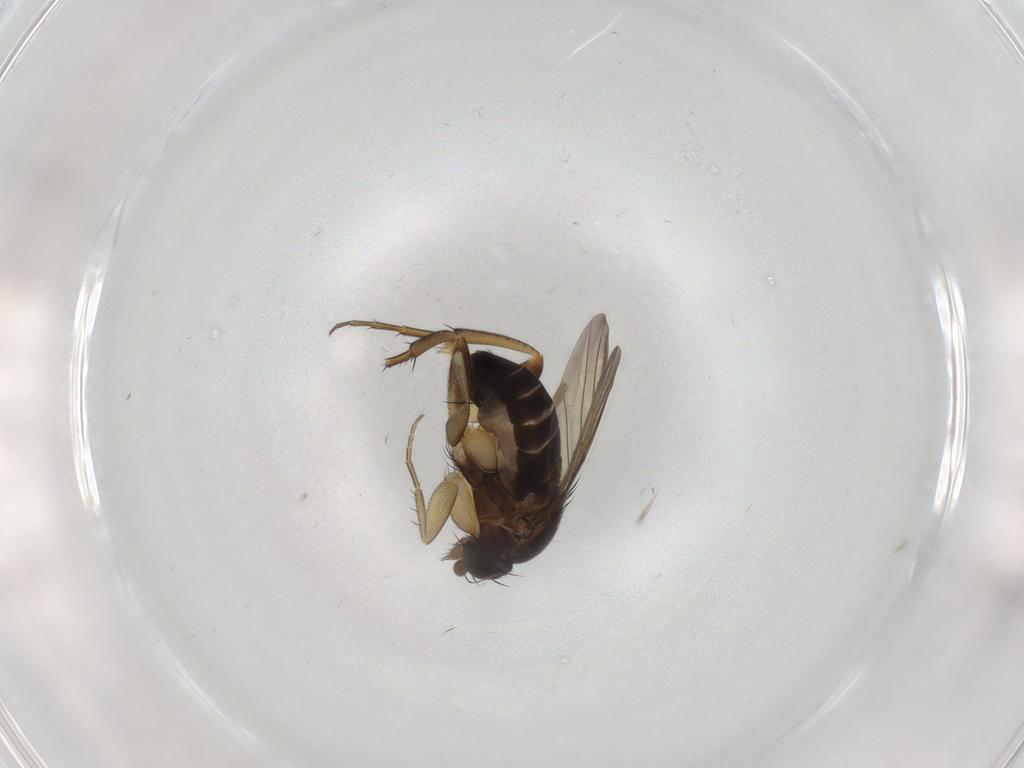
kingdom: Animalia
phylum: Arthropoda
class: Insecta
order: Diptera
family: Phoridae
